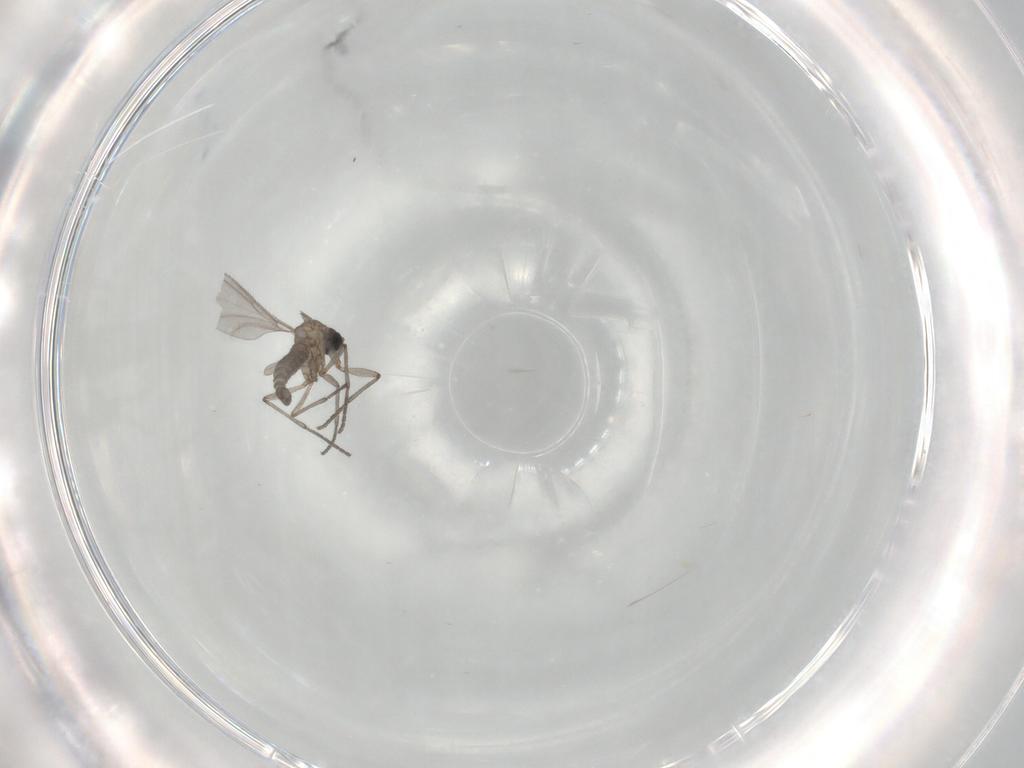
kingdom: Animalia
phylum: Arthropoda
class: Insecta
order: Diptera
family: Sciaridae
